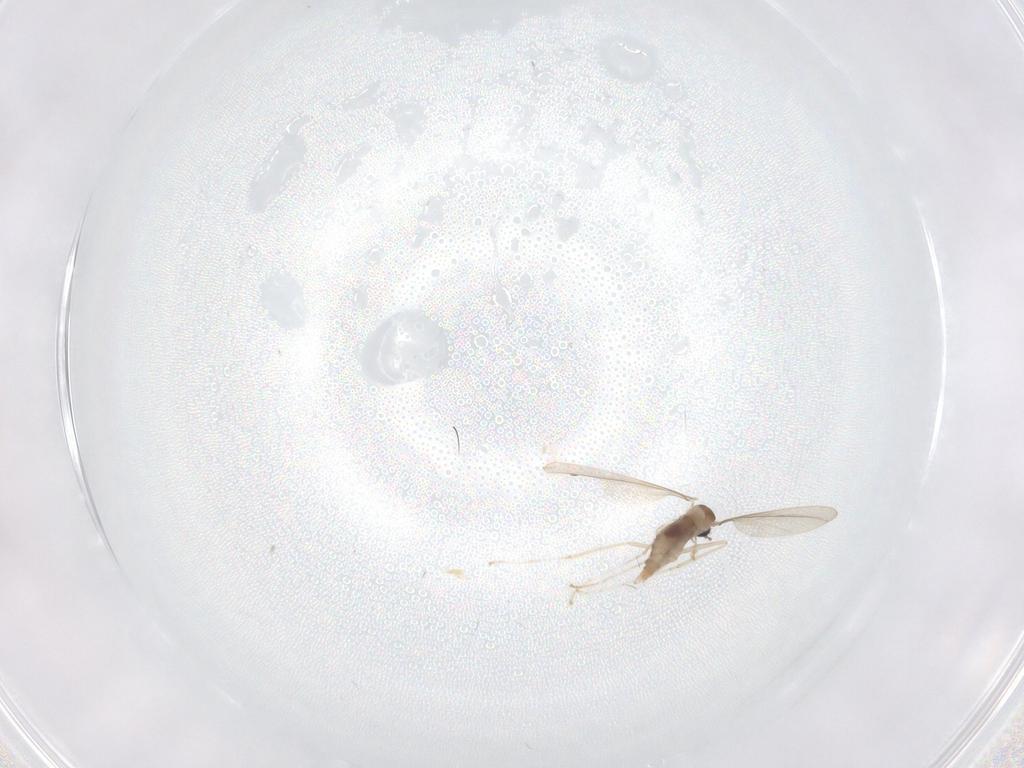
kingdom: Animalia
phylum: Arthropoda
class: Insecta
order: Diptera
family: Cecidomyiidae
